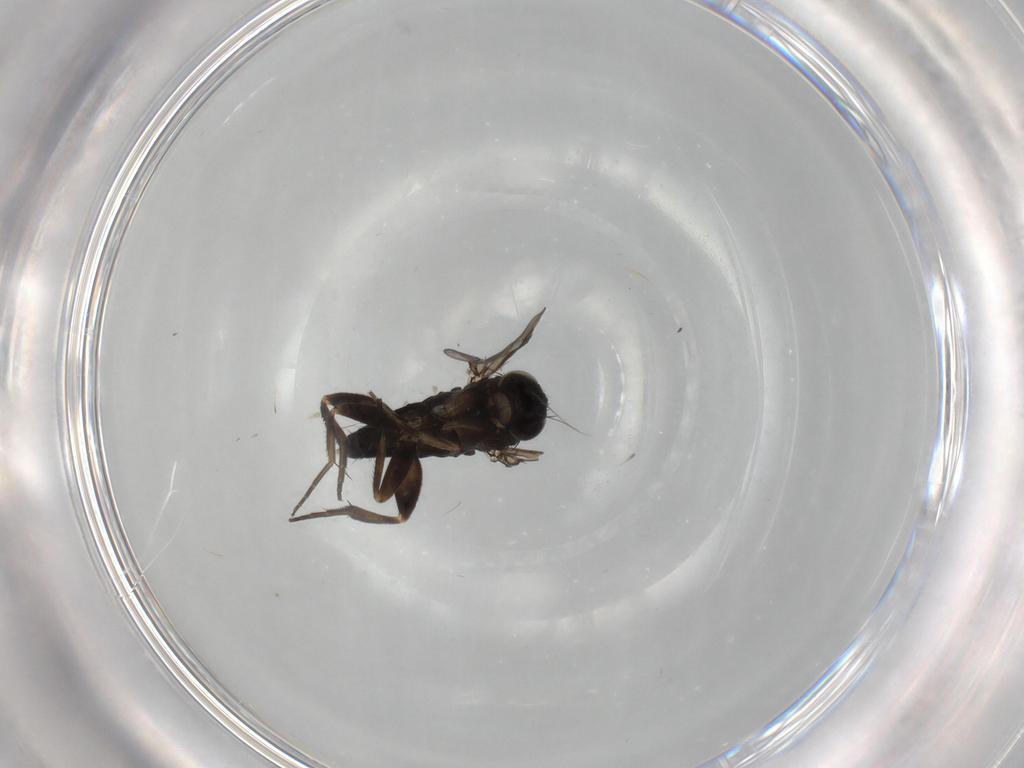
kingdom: Animalia
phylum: Arthropoda
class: Insecta
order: Diptera
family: Phoridae
